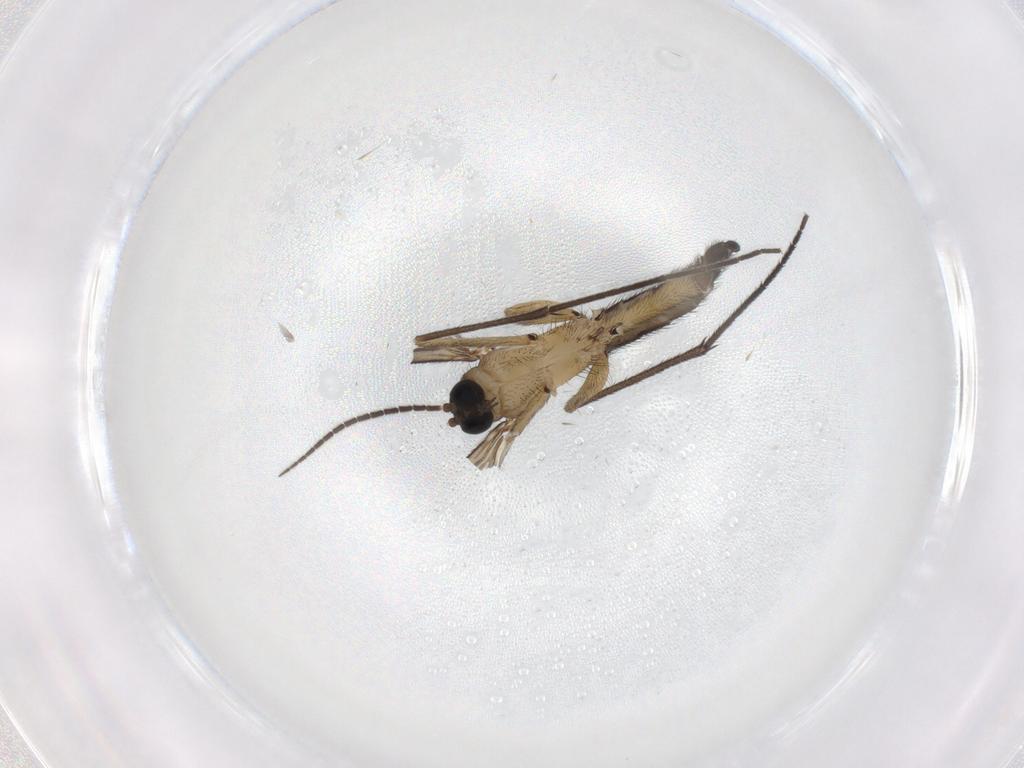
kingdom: Animalia
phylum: Arthropoda
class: Insecta
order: Diptera
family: Sciaridae
